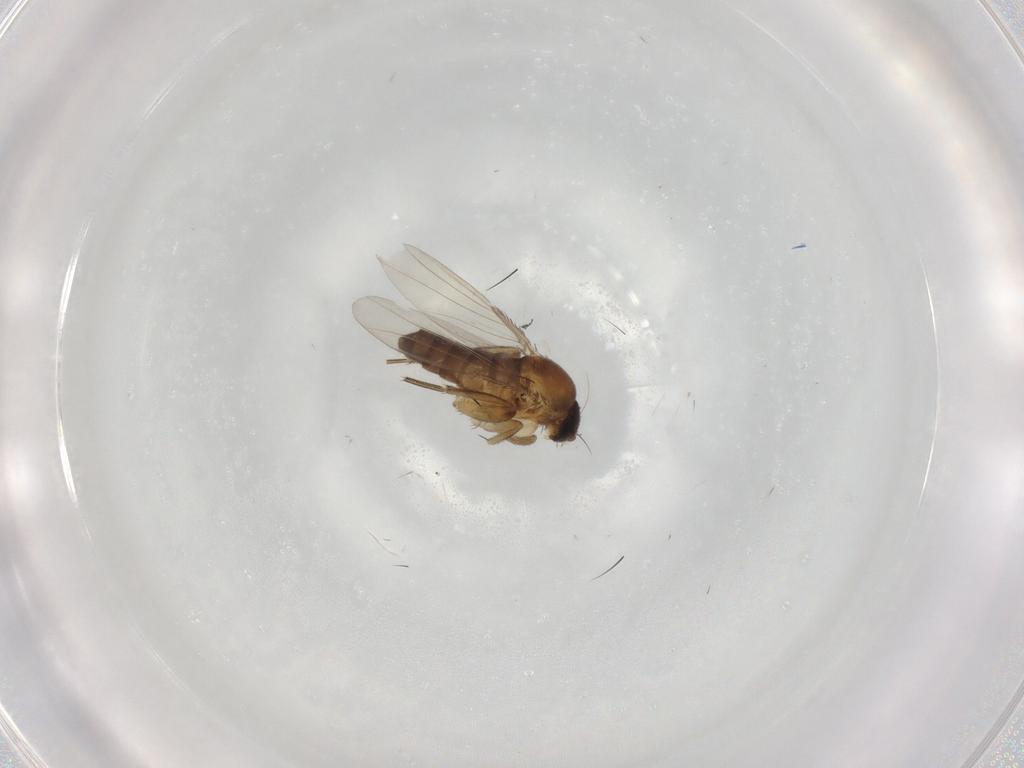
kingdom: Animalia
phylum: Arthropoda
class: Insecta
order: Diptera
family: Phoridae
